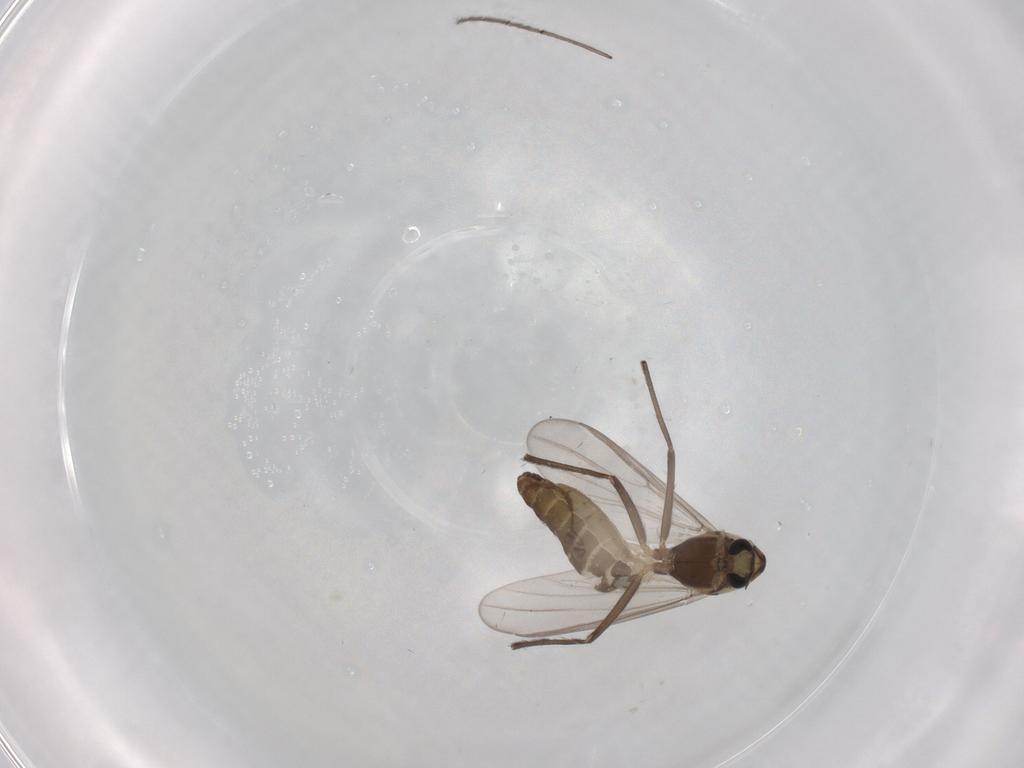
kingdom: Animalia
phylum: Arthropoda
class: Insecta
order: Diptera
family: Chironomidae
